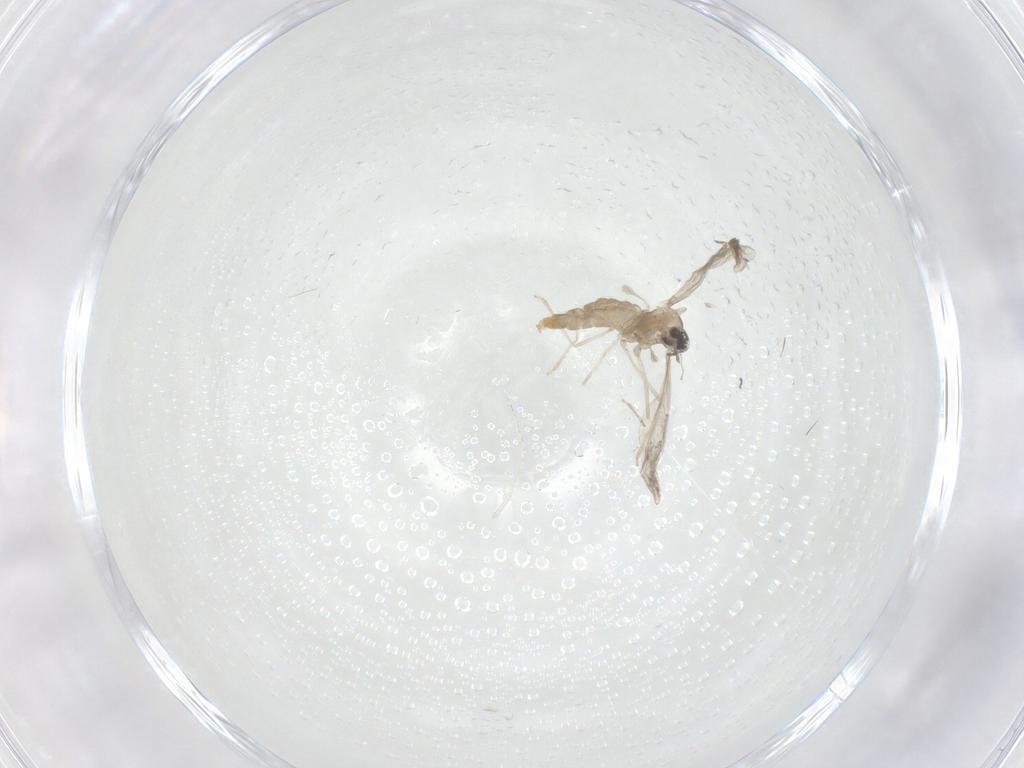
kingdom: Animalia
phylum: Arthropoda
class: Insecta
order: Diptera
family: Cecidomyiidae
